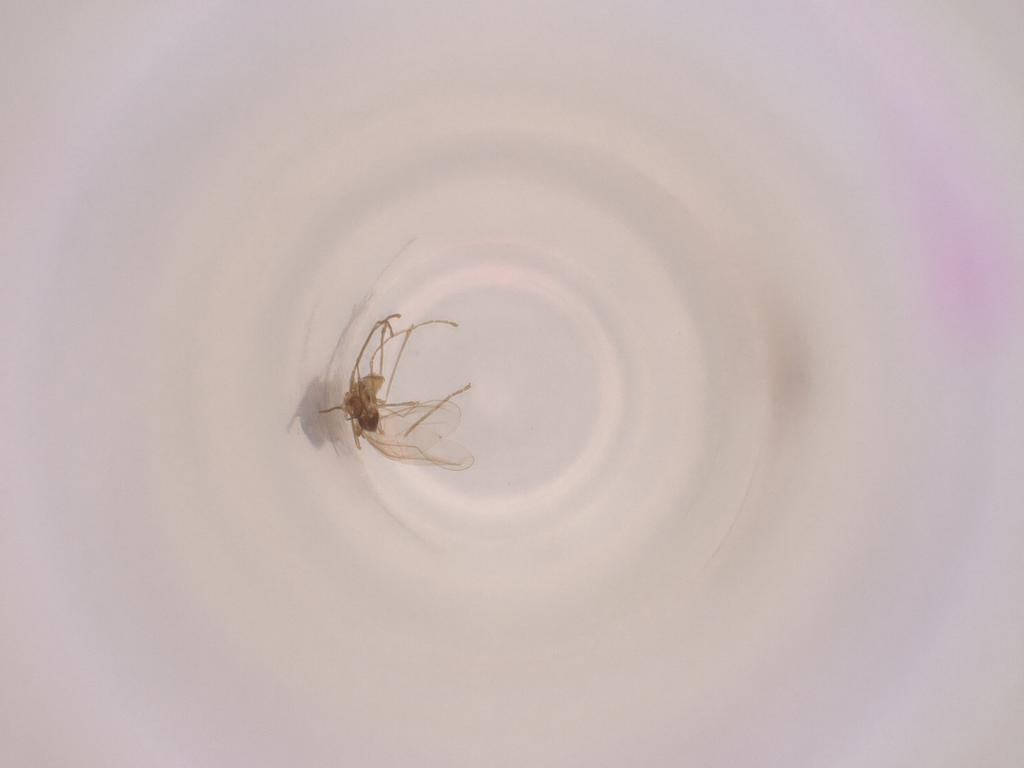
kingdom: Animalia
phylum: Arthropoda
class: Insecta
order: Diptera
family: Cecidomyiidae
